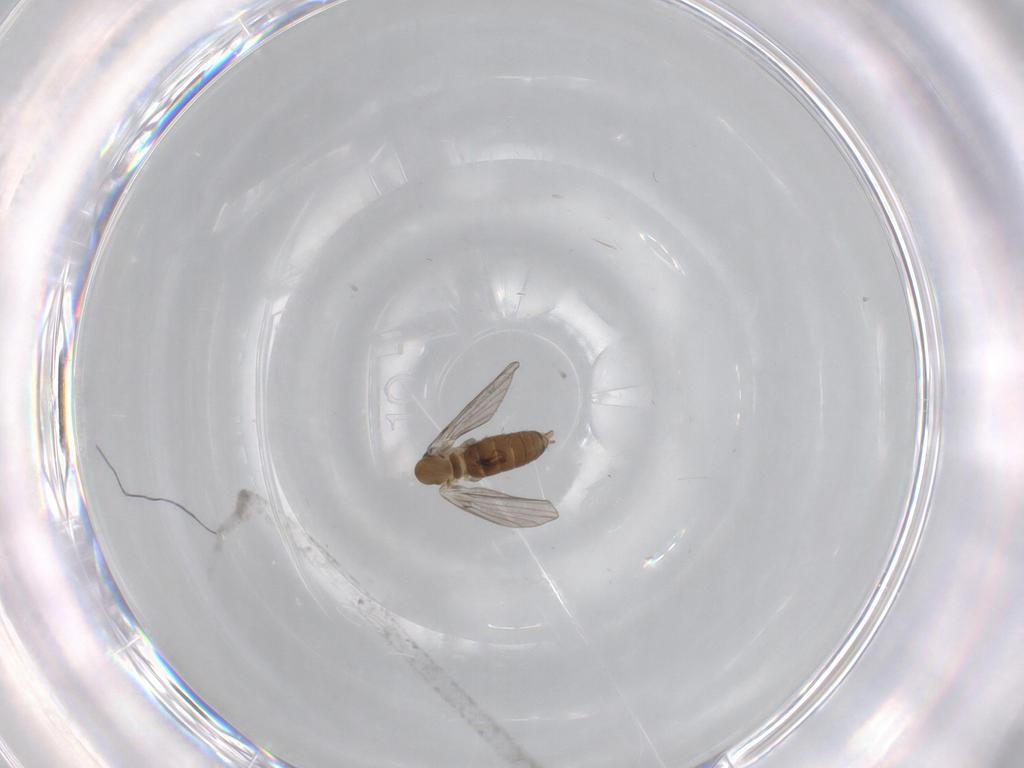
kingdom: Animalia
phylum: Arthropoda
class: Insecta
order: Diptera
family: Psychodidae
